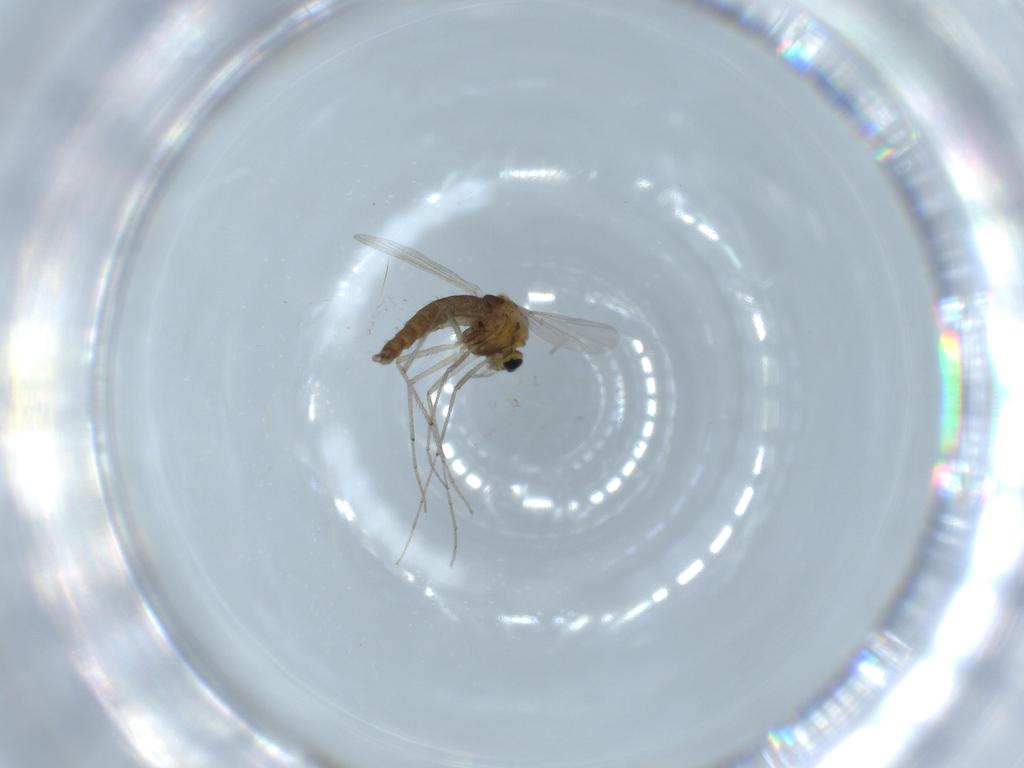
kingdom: Animalia
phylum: Arthropoda
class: Insecta
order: Diptera
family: Chironomidae
